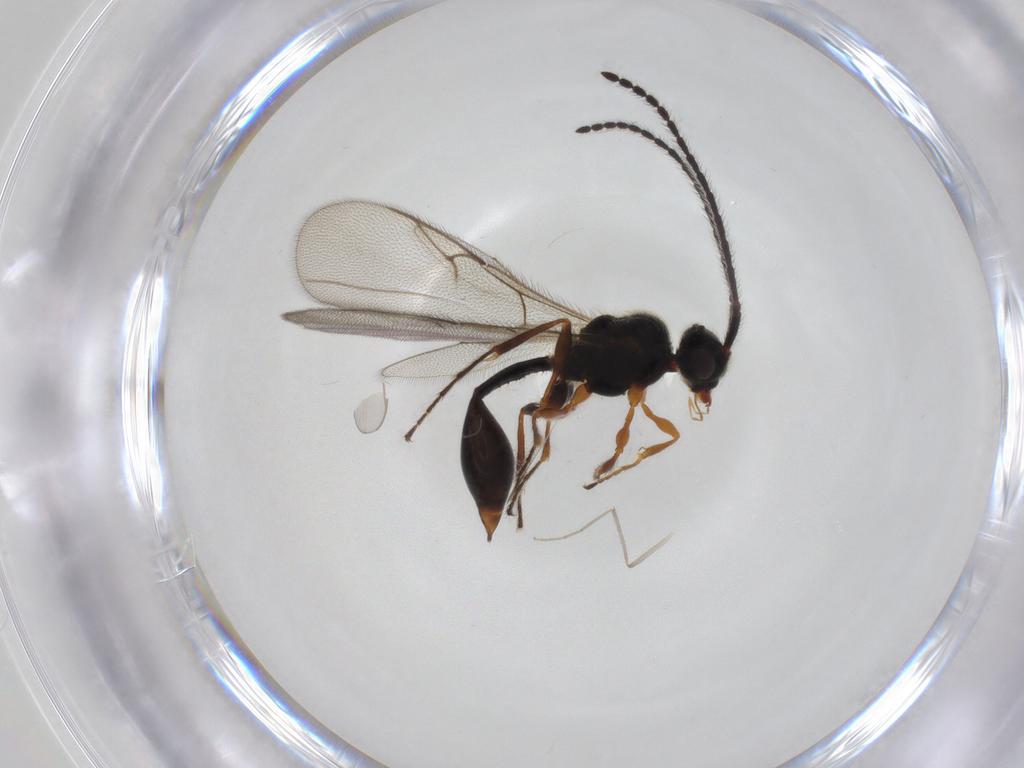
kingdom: Animalia
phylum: Arthropoda
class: Insecta
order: Hymenoptera
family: Diapriidae
